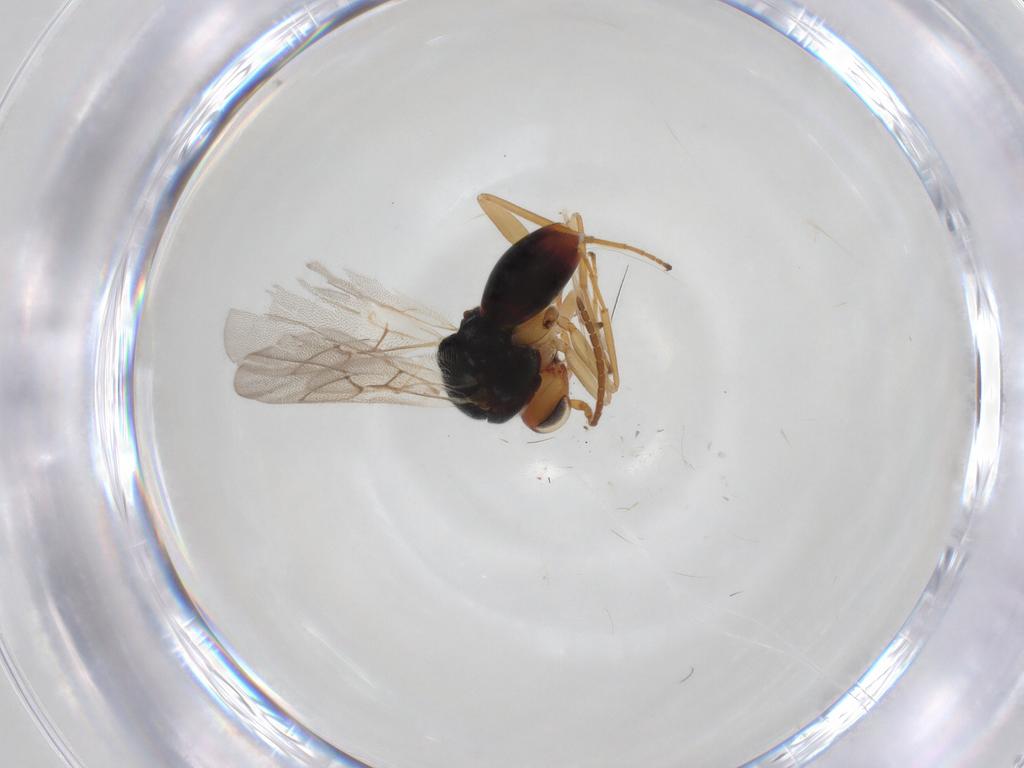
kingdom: Animalia
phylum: Arthropoda
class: Insecta
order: Hymenoptera
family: Cynipidae
